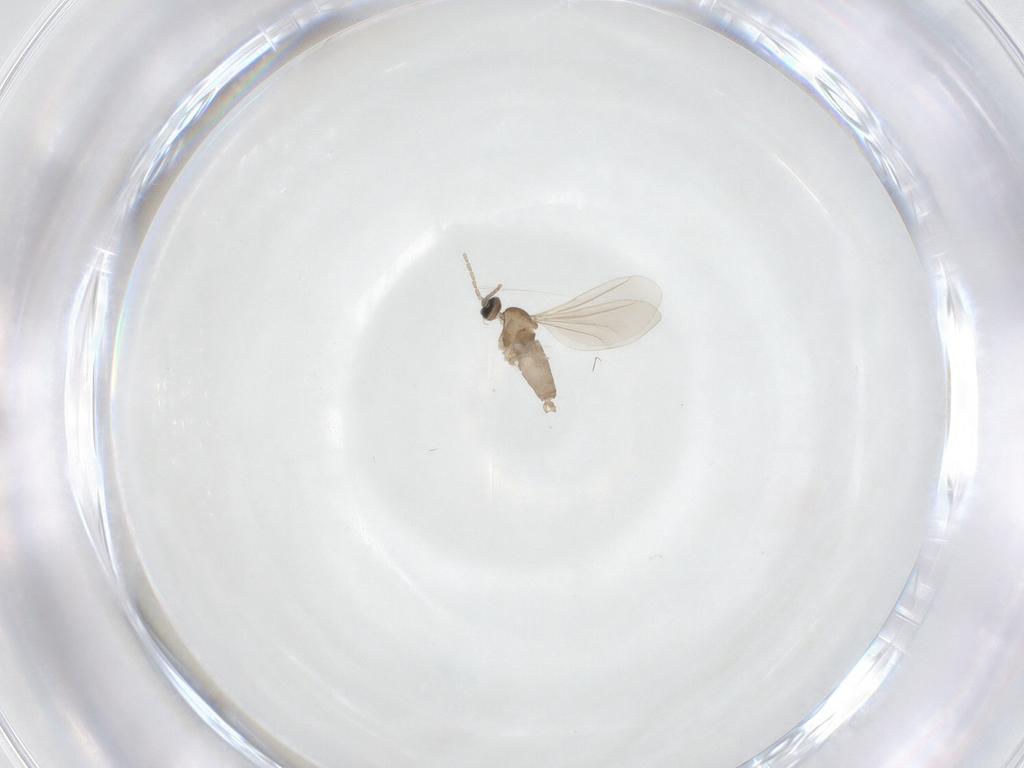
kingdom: Animalia
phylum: Arthropoda
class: Insecta
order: Diptera
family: Cecidomyiidae
